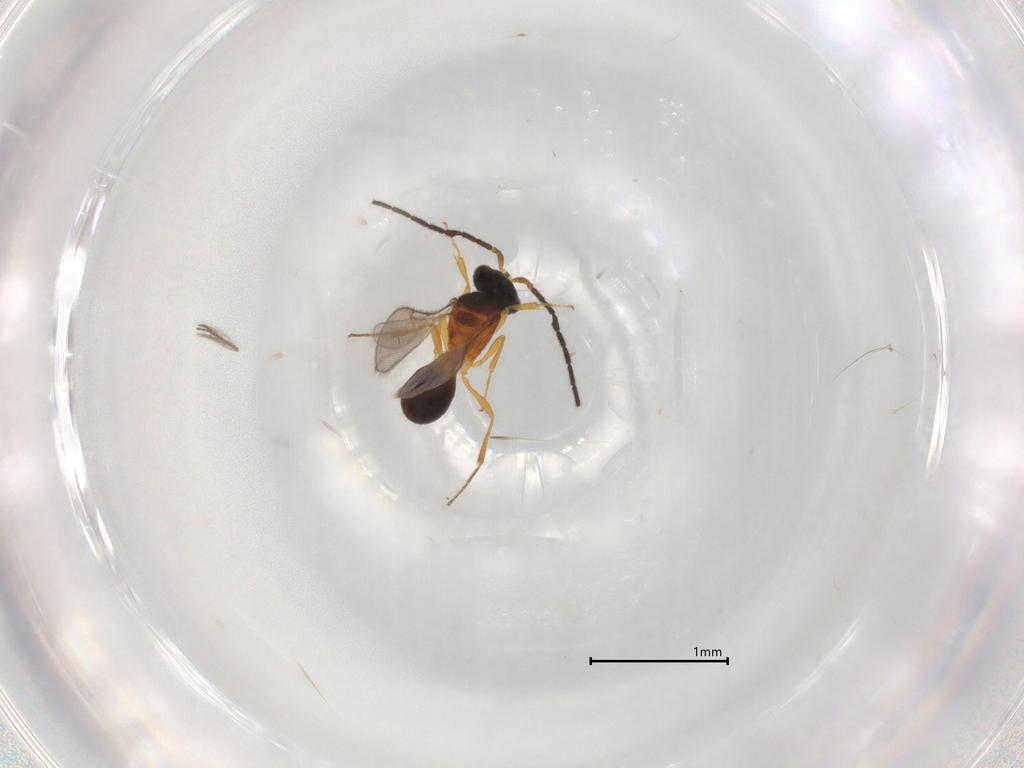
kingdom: Animalia
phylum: Arthropoda
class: Insecta
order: Hymenoptera
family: Scelionidae
